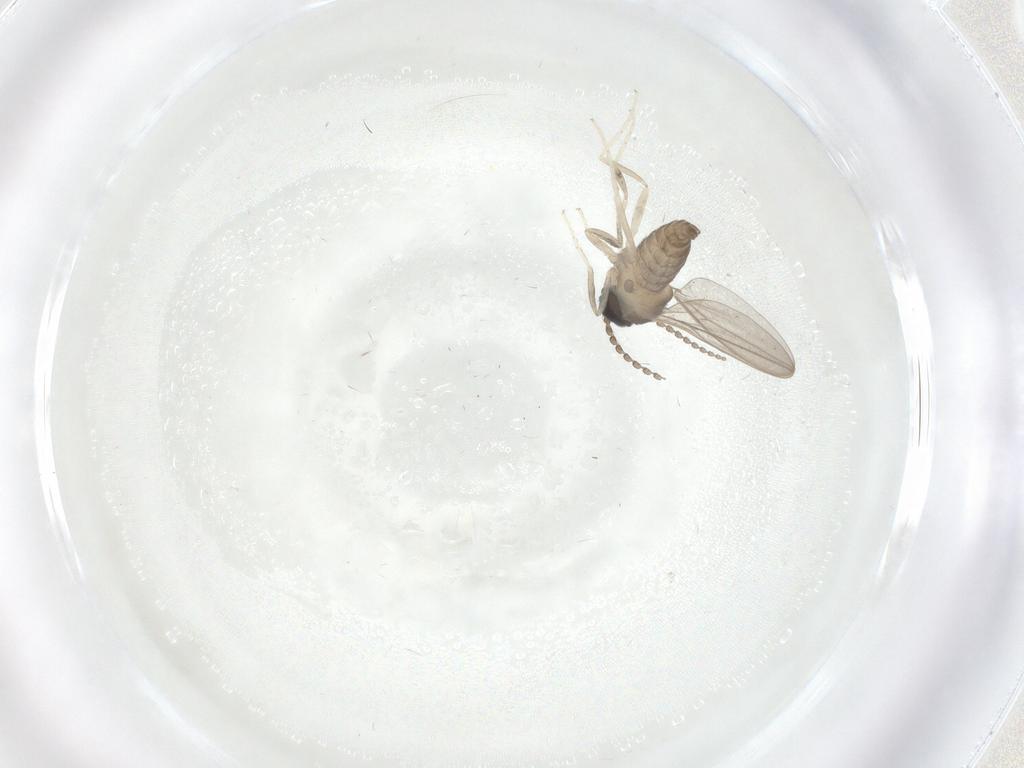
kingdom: Animalia
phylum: Arthropoda
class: Insecta
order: Diptera
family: Cecidomyiidae
